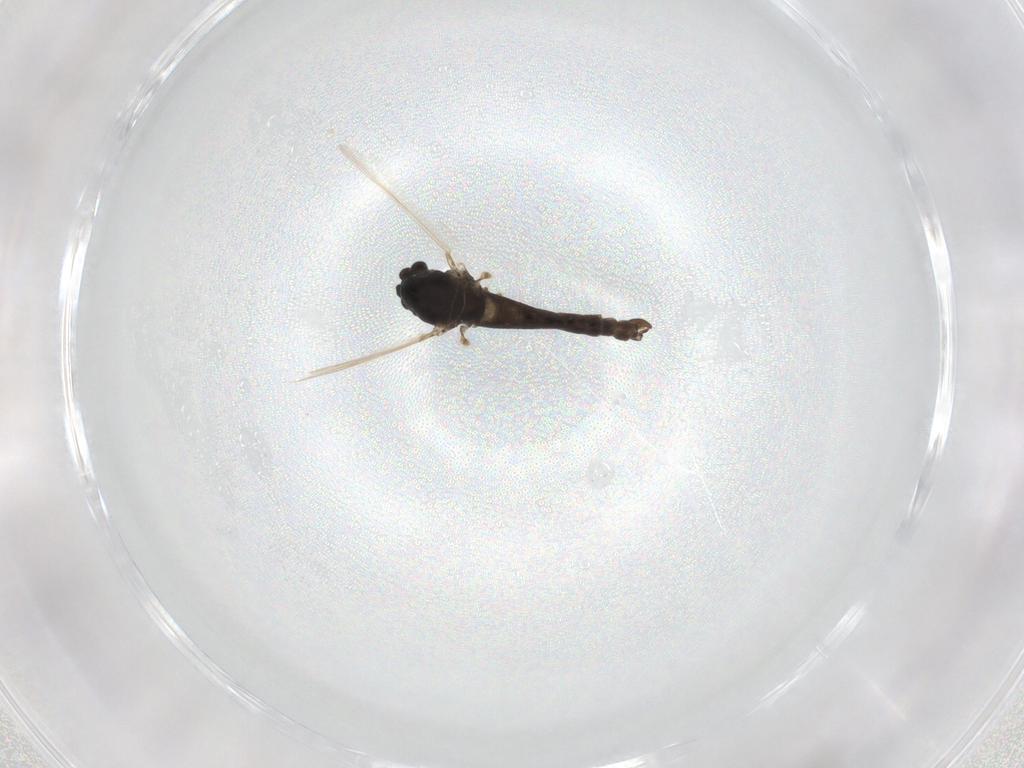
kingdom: Animalia
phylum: Arthropoda
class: Insecta
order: Diptera
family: Chironomidae
